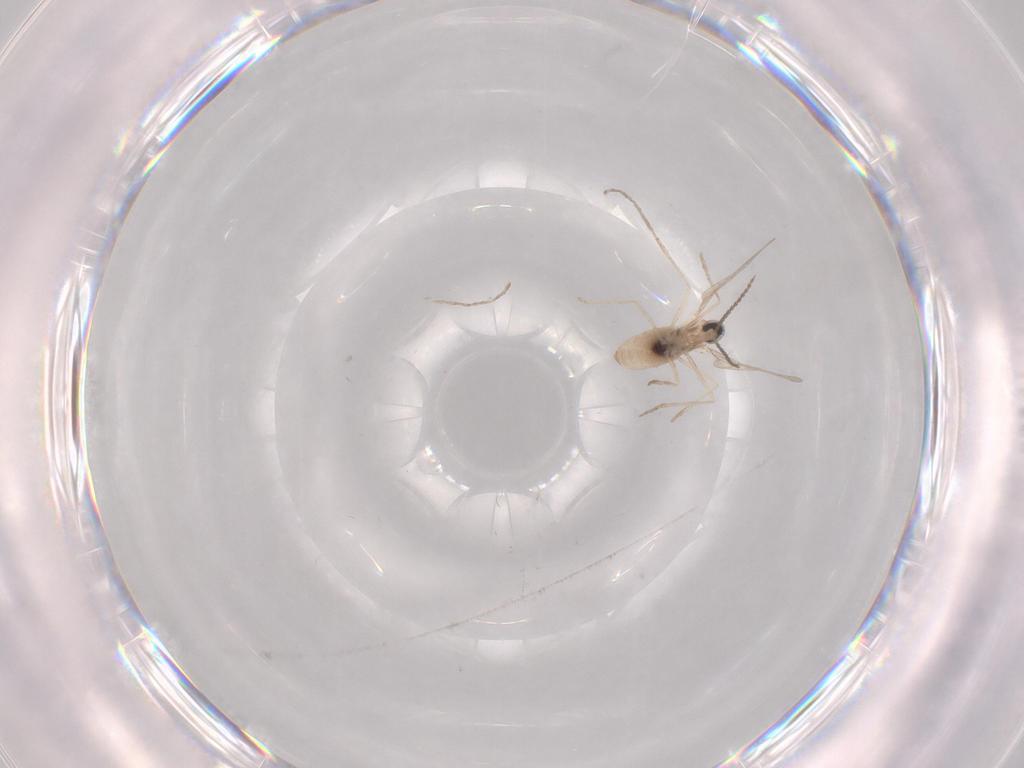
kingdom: Animalia
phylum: Arthropoda
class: Insecta
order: Diptera
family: Cecidomyiidae
